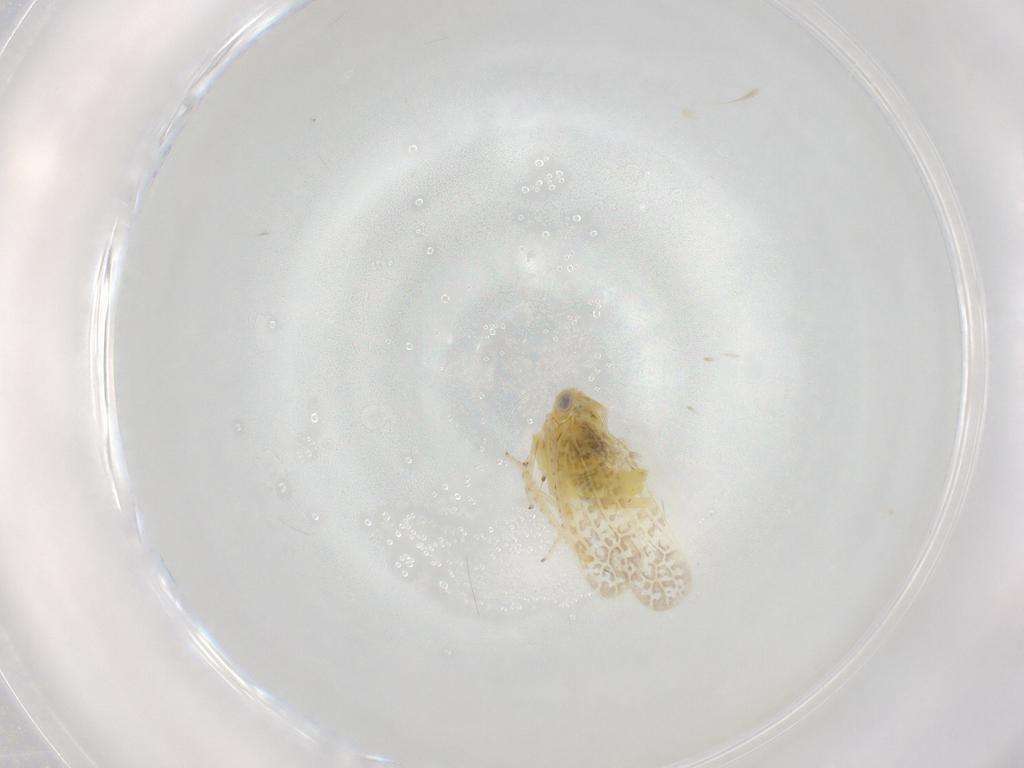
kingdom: Animalia
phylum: Arthropoda
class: Insecta
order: Hemiptera
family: Cicadellidae
